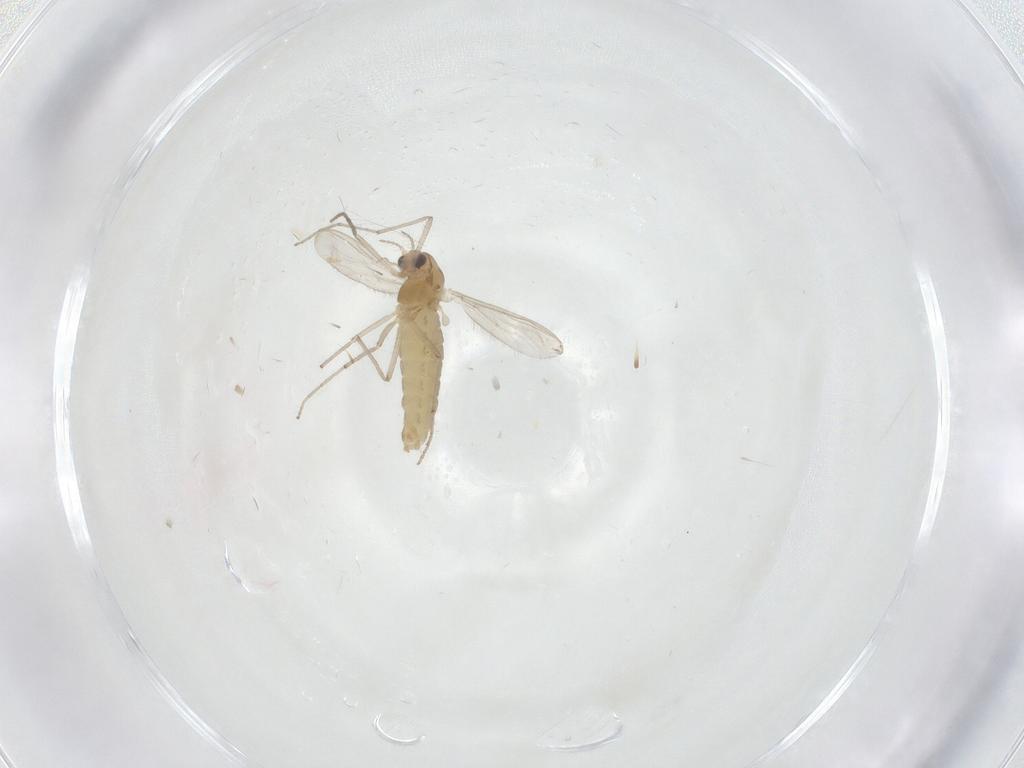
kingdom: Animalia
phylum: Arthropoda
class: Insecta
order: Diptera
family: Chironomidae
